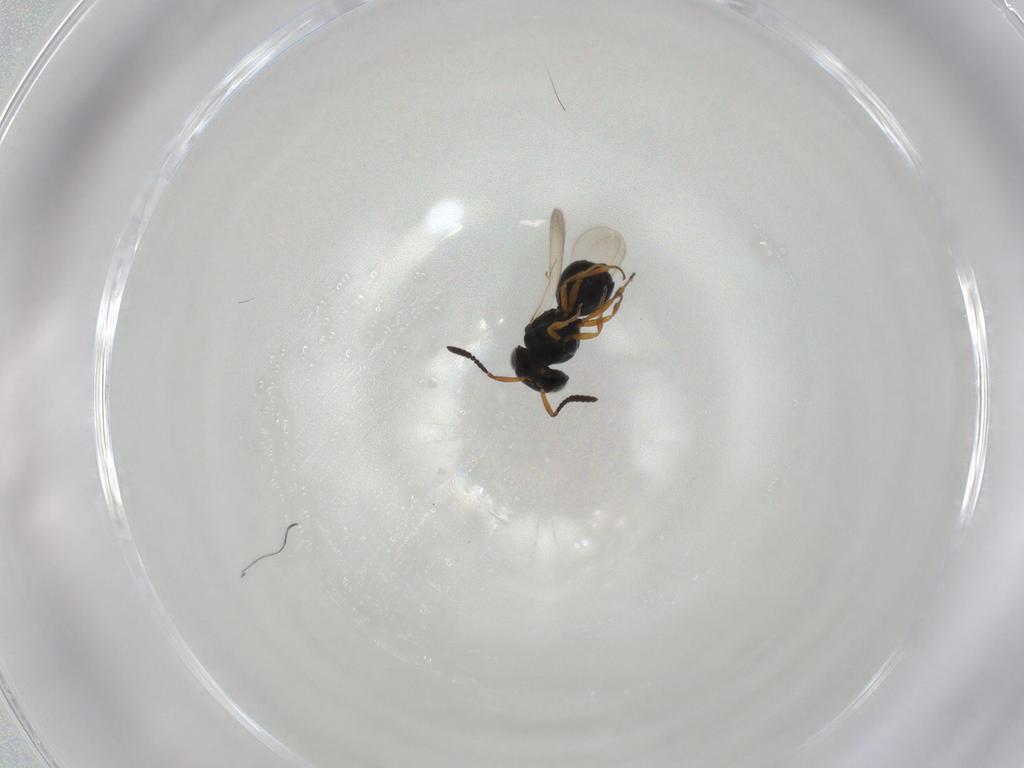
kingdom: Animalia
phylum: Arthropoda
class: Insecta
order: Hymenoptera
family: Scelionidae
